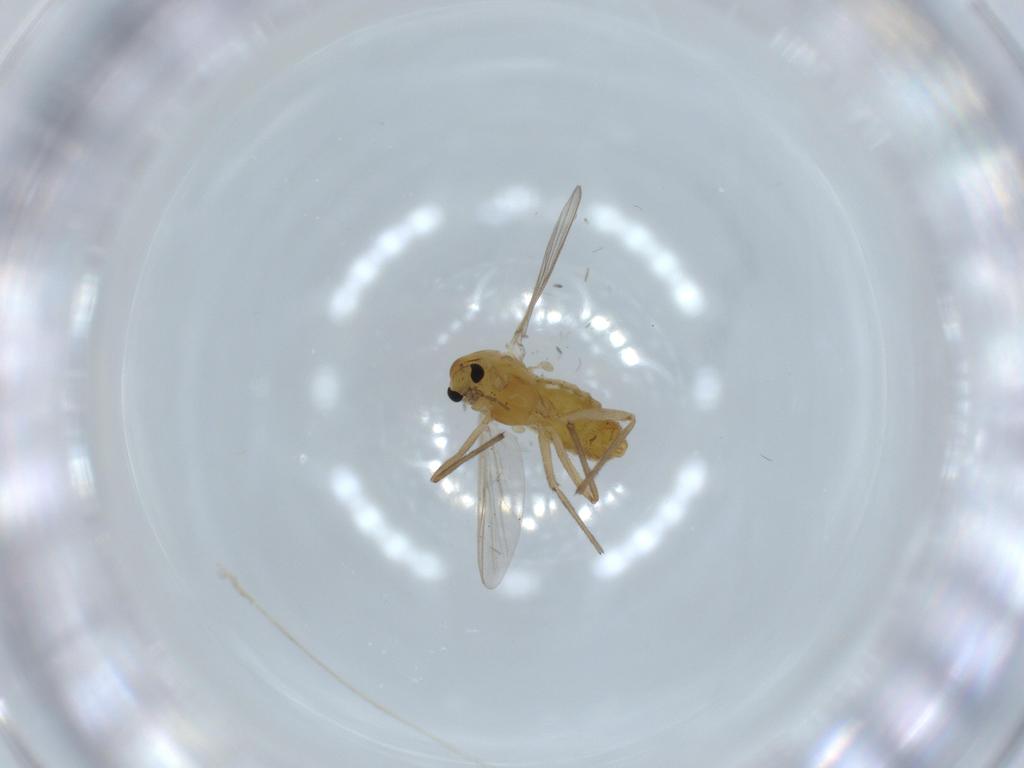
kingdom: Animalia
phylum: Arthropoda
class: Insecta
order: Diptera
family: Chironomidae
